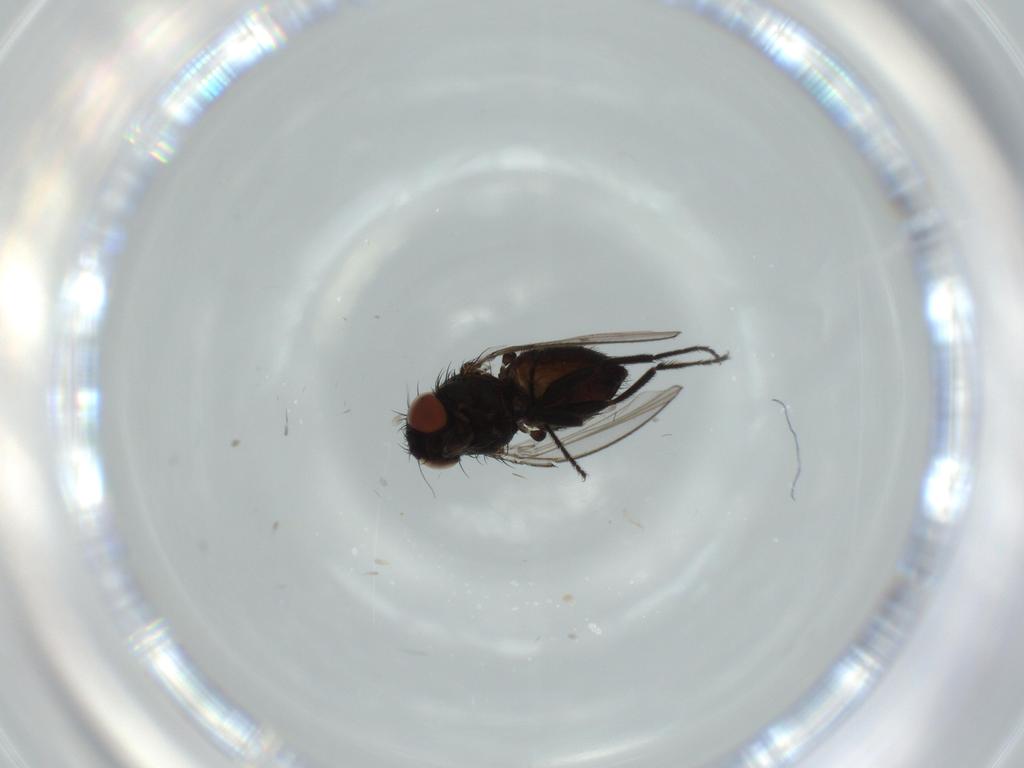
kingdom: Animalia
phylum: Arthropoda
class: Insecta
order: Diptera
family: Milichiidae
